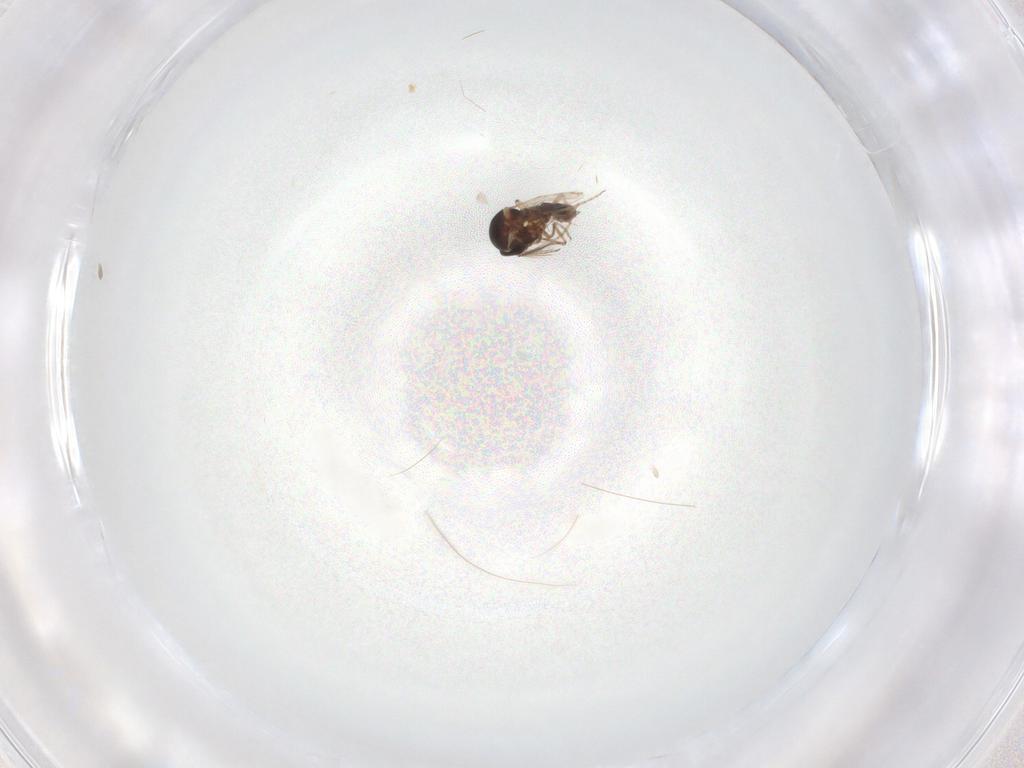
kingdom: Animalia
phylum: Arthropoda
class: Insecta
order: Diptera
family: Ceratopogonidae
